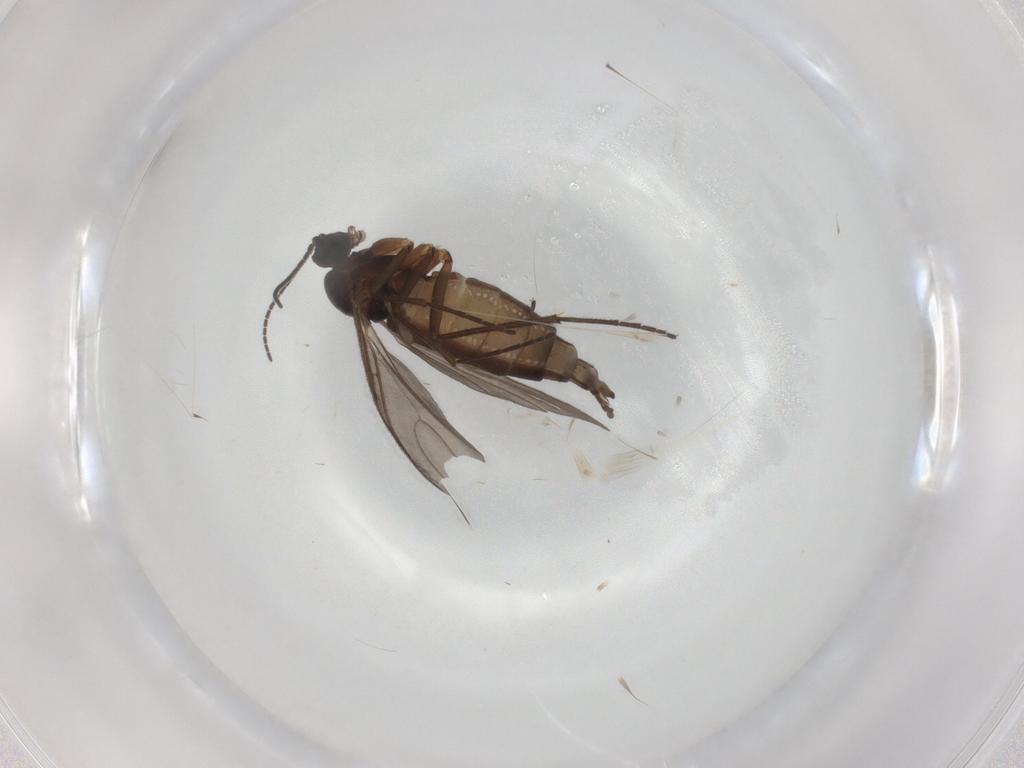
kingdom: Animalia
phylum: Arthropoda
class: Insecta
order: Diptera
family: Sciaridae
